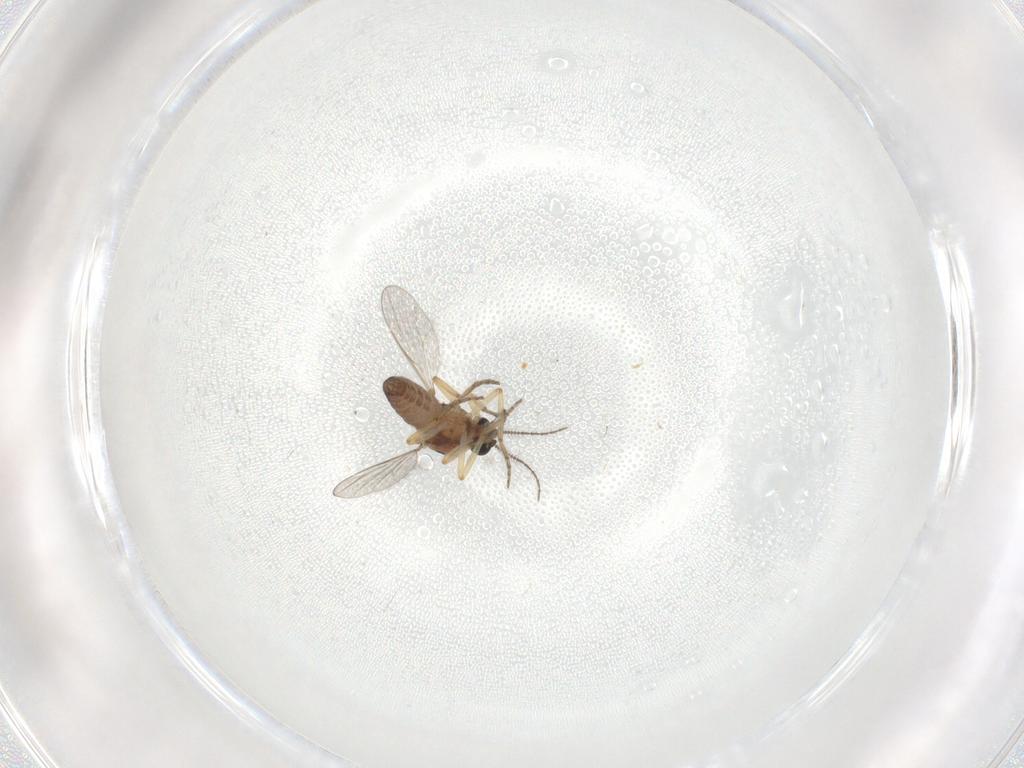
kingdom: Animalia
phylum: Arthropoda
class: Insecta
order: Diptera
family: Ceratopogonidae
